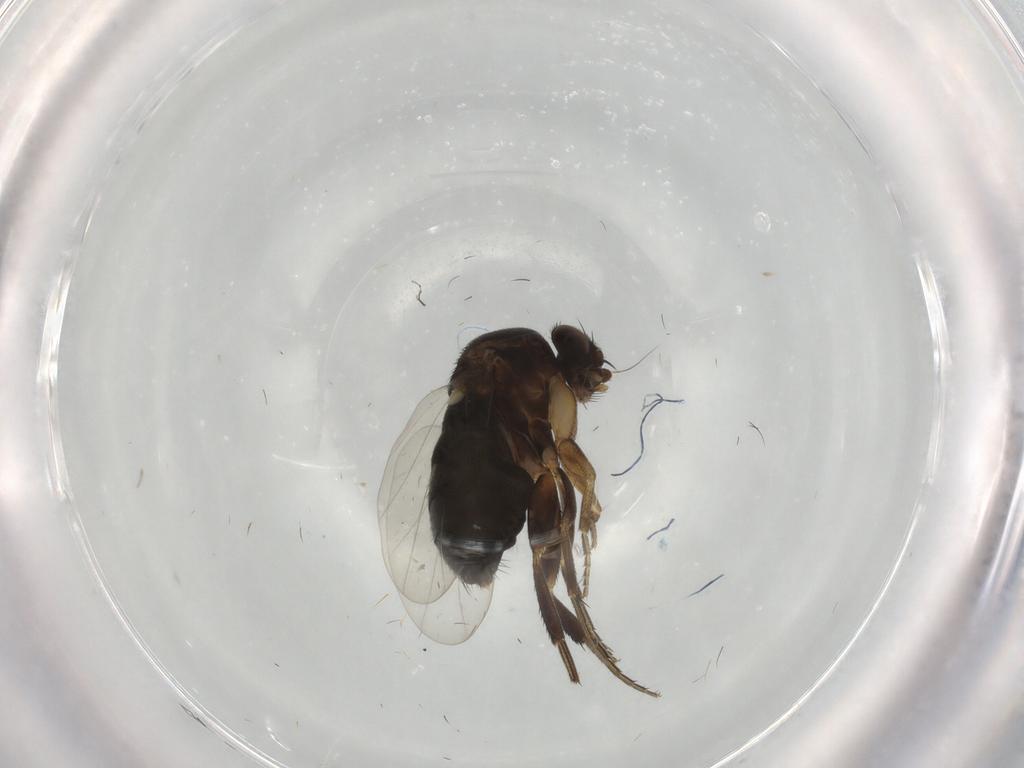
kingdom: Animalia
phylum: Arthropoda
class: Insecta
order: Diptera
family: Phoridae
